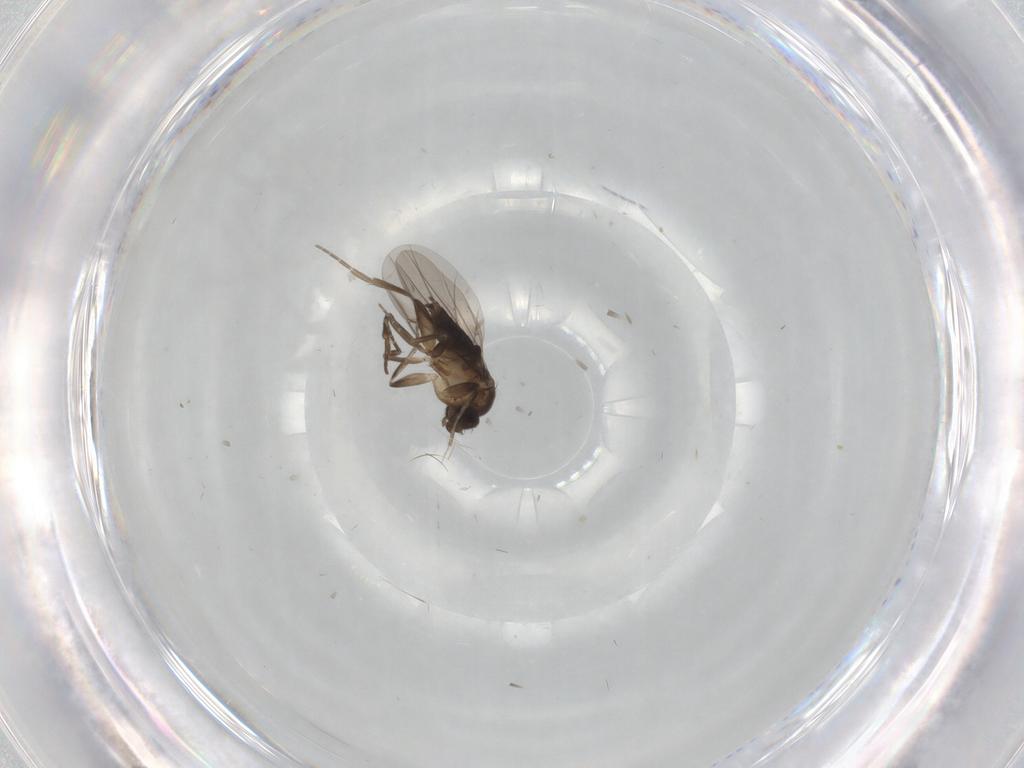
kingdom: Animalia
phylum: Arthropoda
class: Insecta
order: Diptera
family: Phoridae
